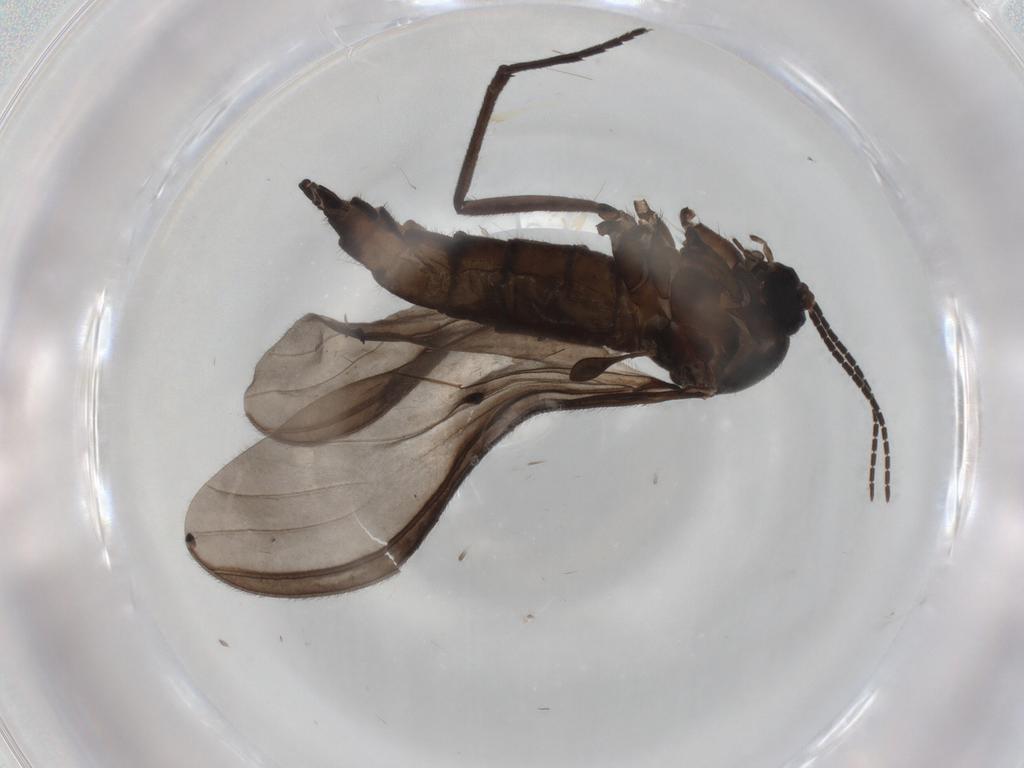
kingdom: Animalia
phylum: Arthropoda
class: Insecta
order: Diptera
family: Sciaridae
